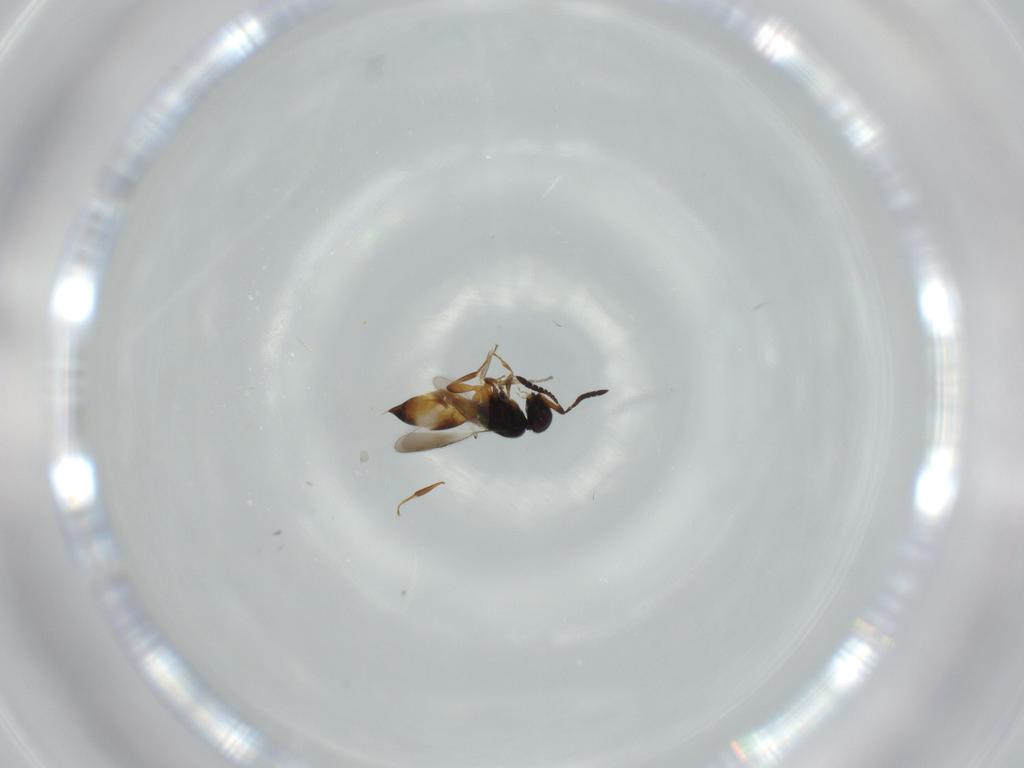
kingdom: Animalia
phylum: Arthropoda
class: Insecta
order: Hymenoptera
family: Ceraphronidae
